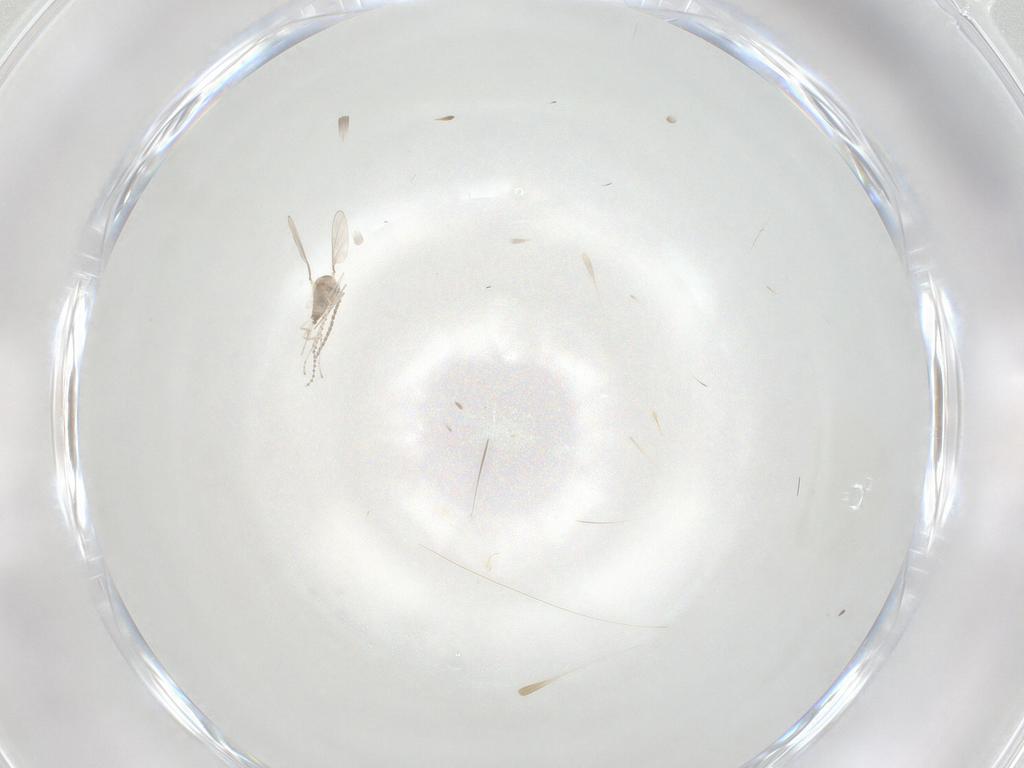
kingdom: Animalia
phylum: Arthropoda
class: Insecta
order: Diptera
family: Cecidomyiidae
